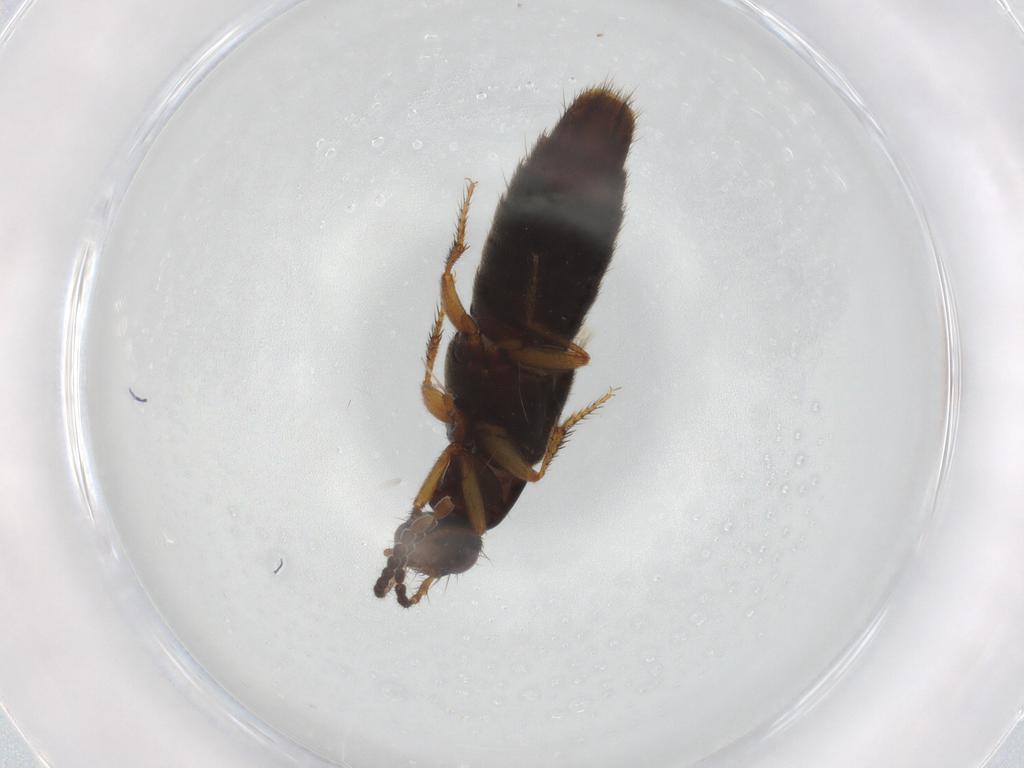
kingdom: Animalia
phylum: Arthropoda
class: Insecta
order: Coleoptera
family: Staphylinidae
